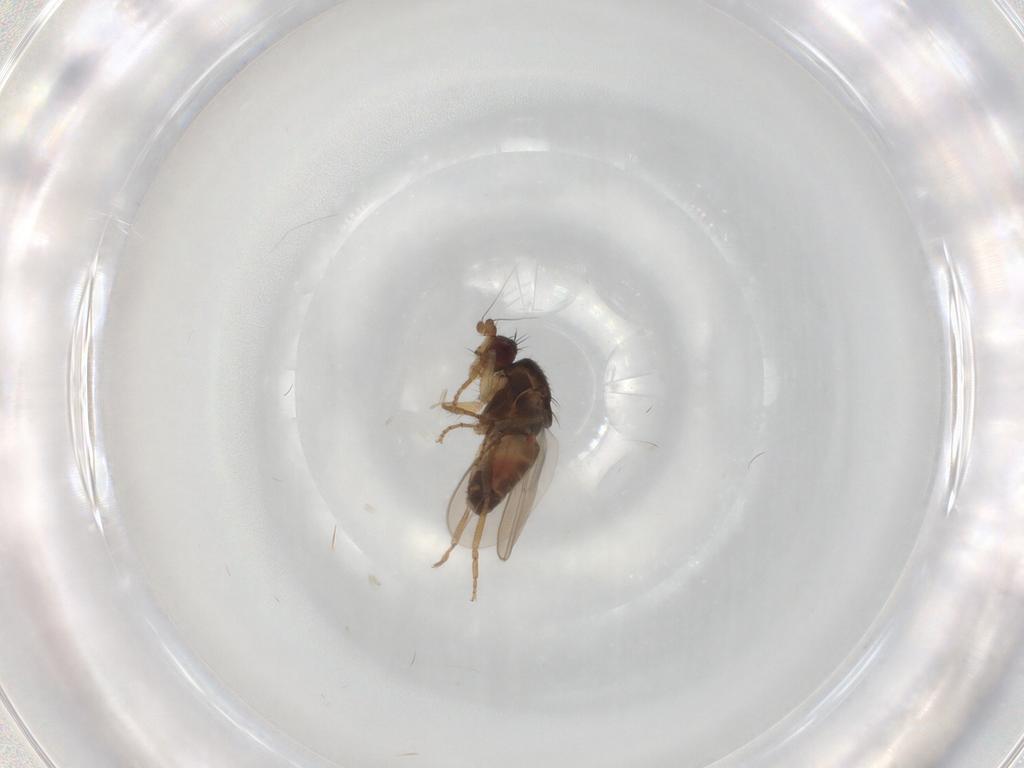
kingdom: Animalia
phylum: Arthropoda
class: Insecta
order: Diptera
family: Sphaeroceridae
